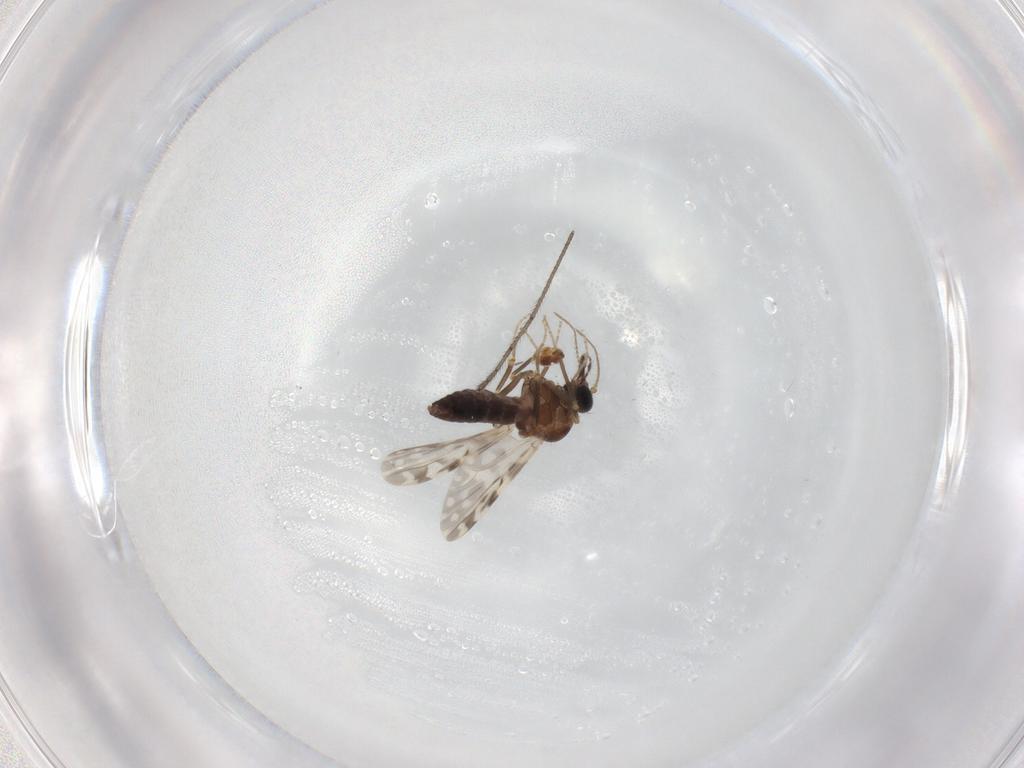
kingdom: Animalia
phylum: Arthropoda
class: Insecta
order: Diptera
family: Ceratopogonidae
